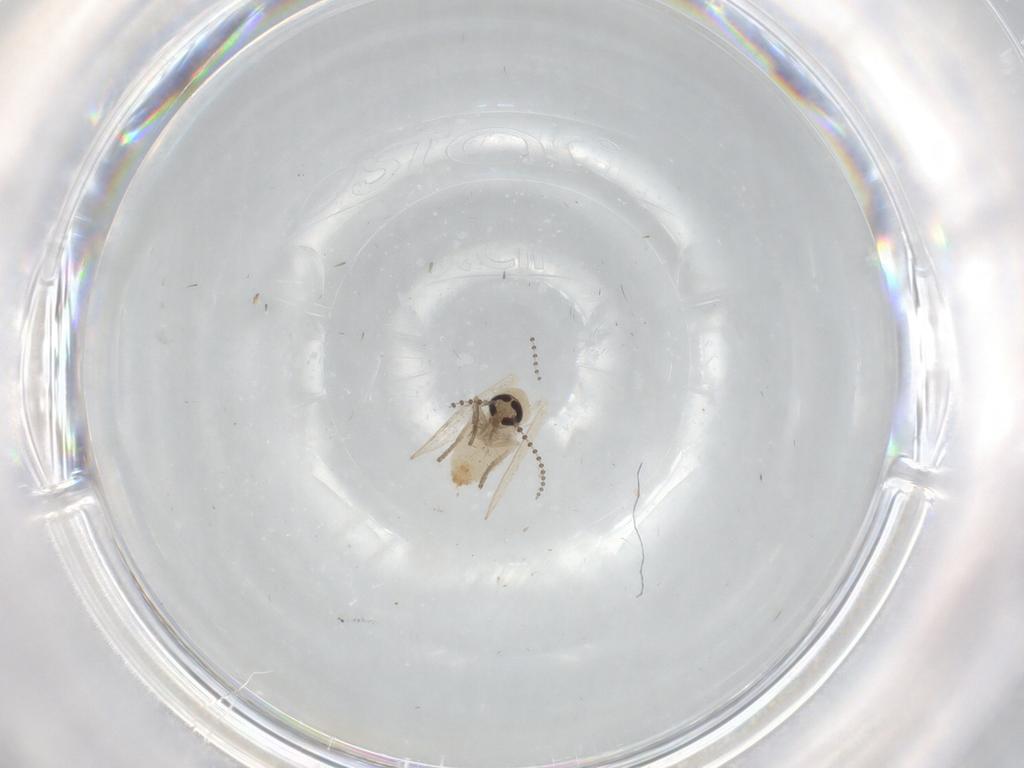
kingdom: Animalia
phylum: Arthropoda
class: Insecta
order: Diptera
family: Psychodidae
